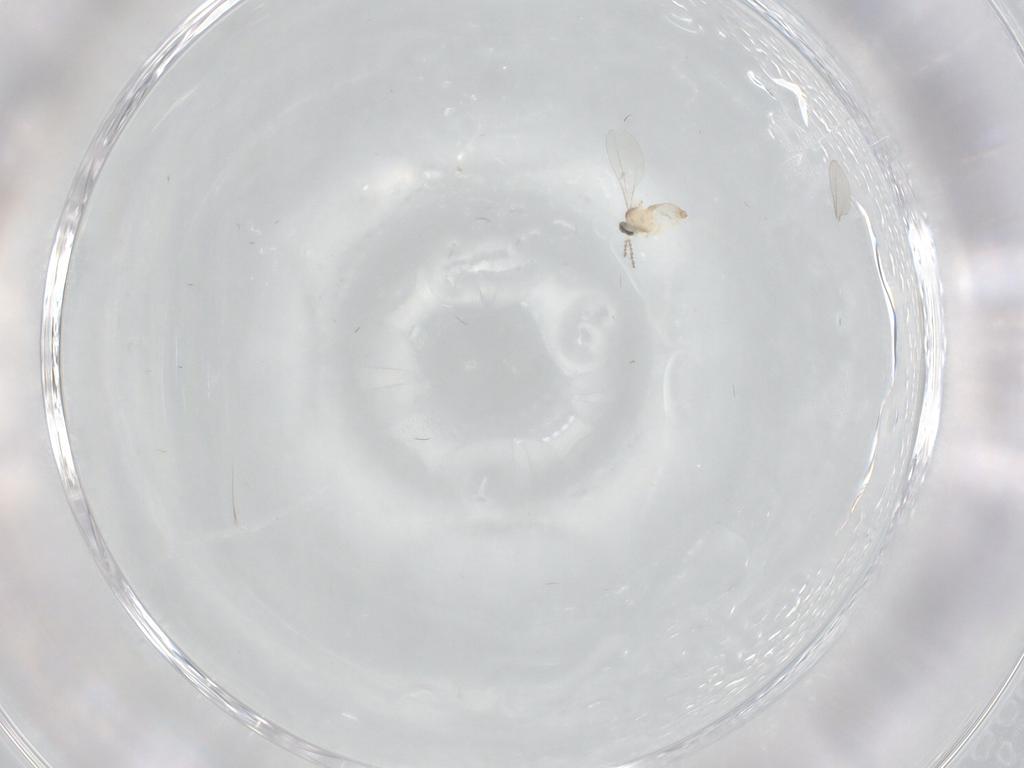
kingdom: Animalia
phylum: Arthropoda
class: Insecta
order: Diptera
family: Cecidomyiidae
